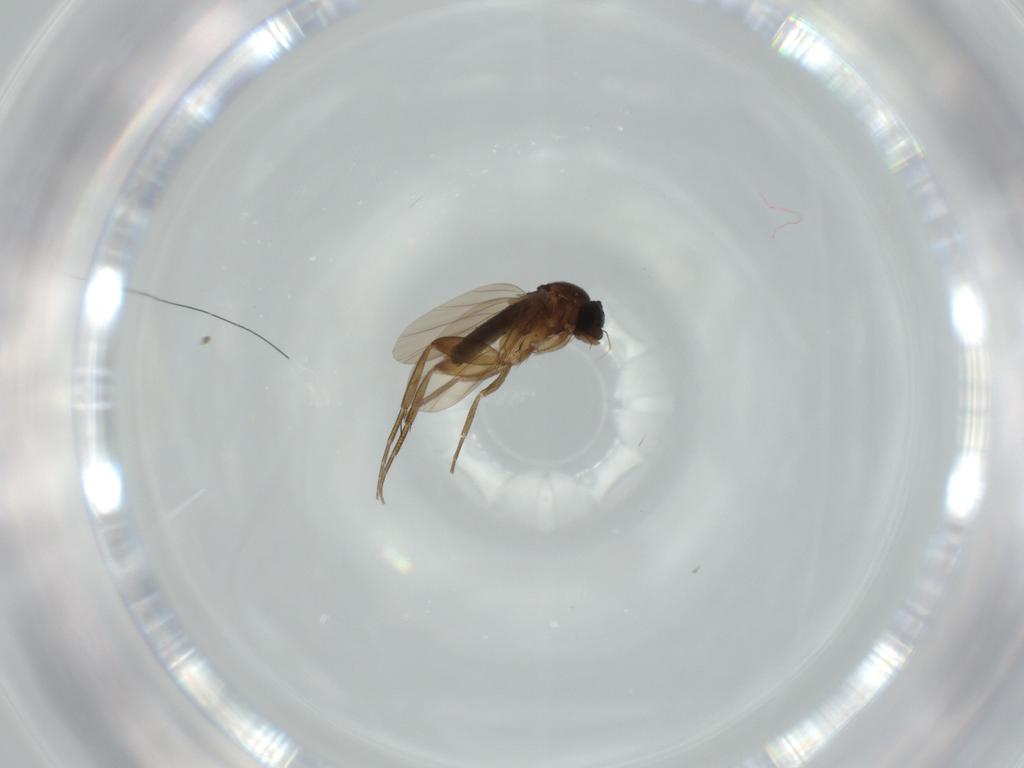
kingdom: Animalia
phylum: Arthropoda
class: Insecta
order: Diptera
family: Phoridae
